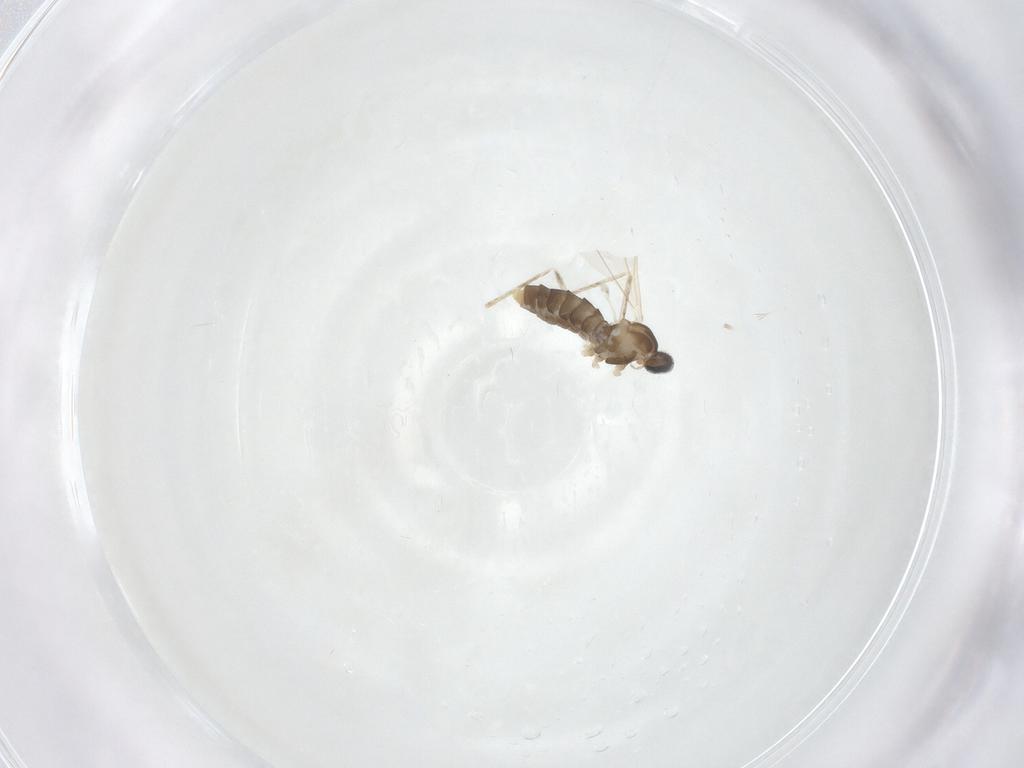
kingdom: Animalia
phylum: Arthropoda
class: Insecta
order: Diptera
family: Cecidomyiidae
